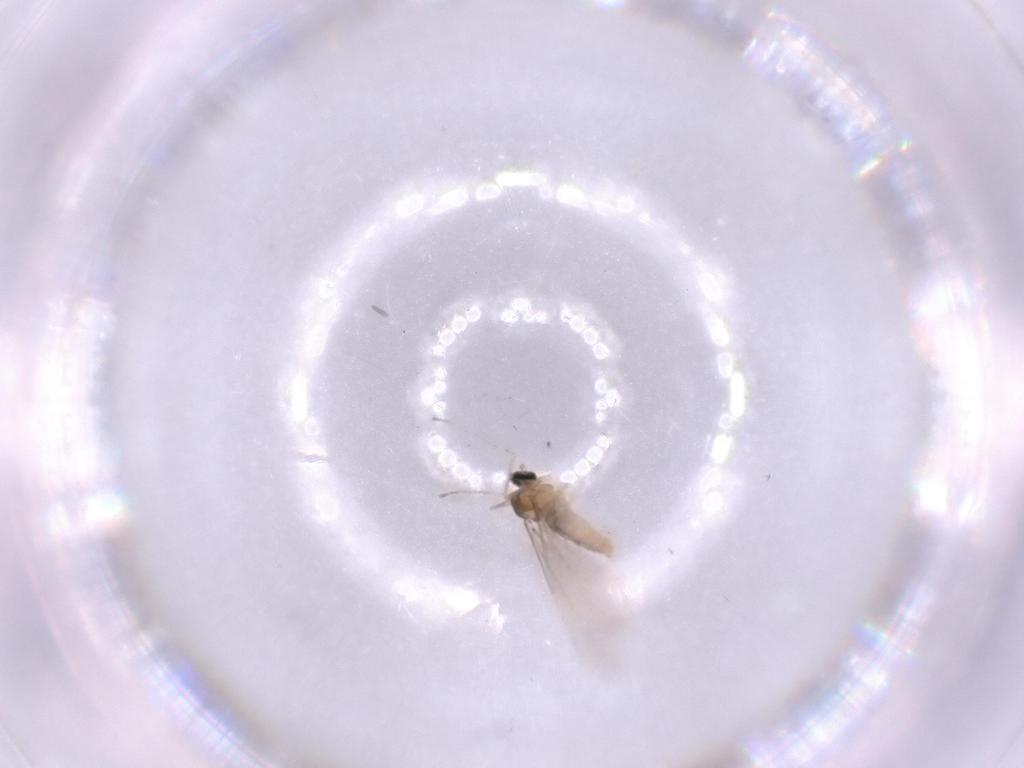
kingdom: Animalia
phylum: Arthropoda
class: Insecta
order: Diptera
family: Cecidomyiidae
